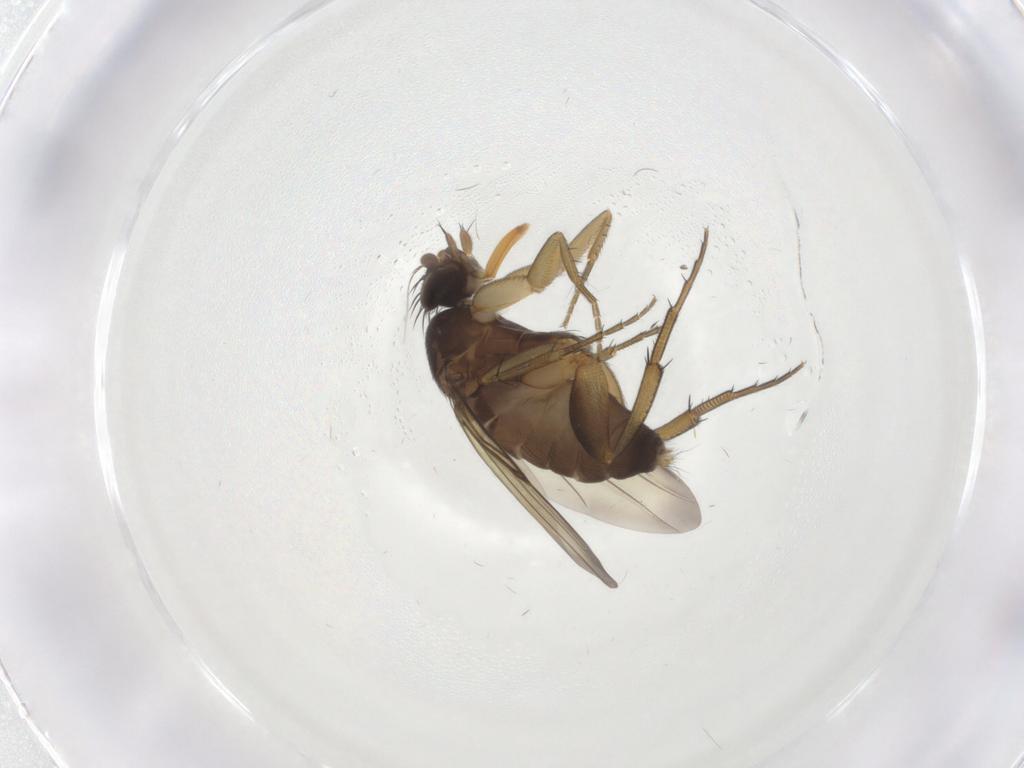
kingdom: Animalia
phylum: Arthropoda
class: Insecta
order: Diptera
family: Phoridae
